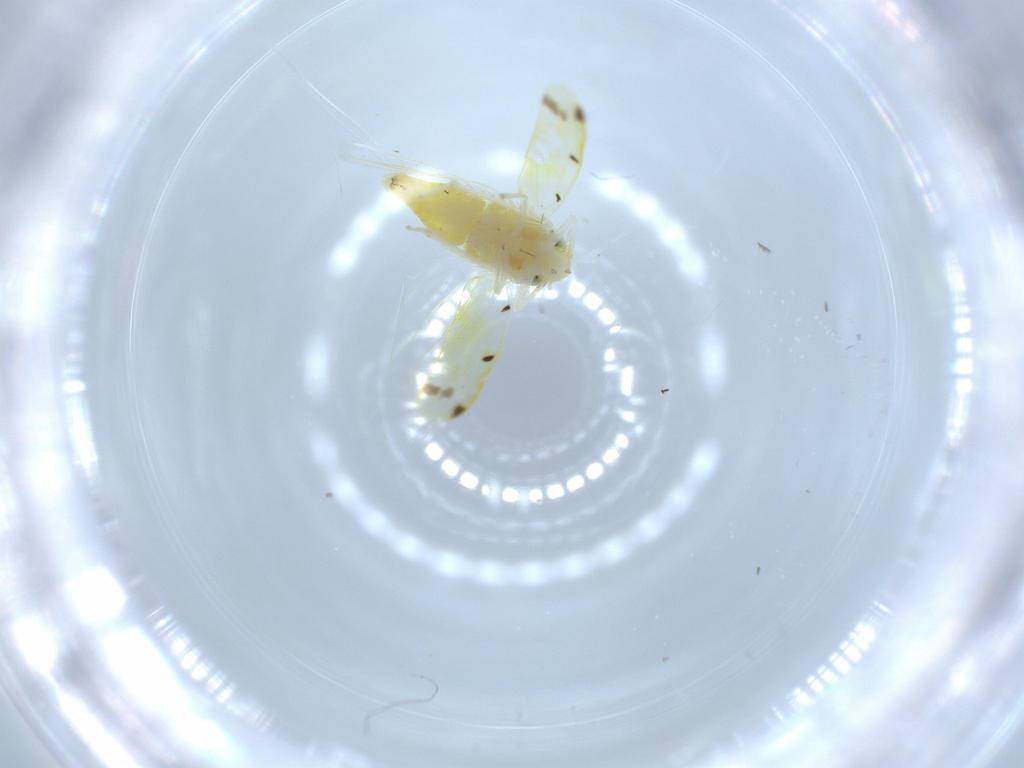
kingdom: Animalia
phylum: Arthropoda
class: Insecta
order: Hemiptera
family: Cicadellidae
